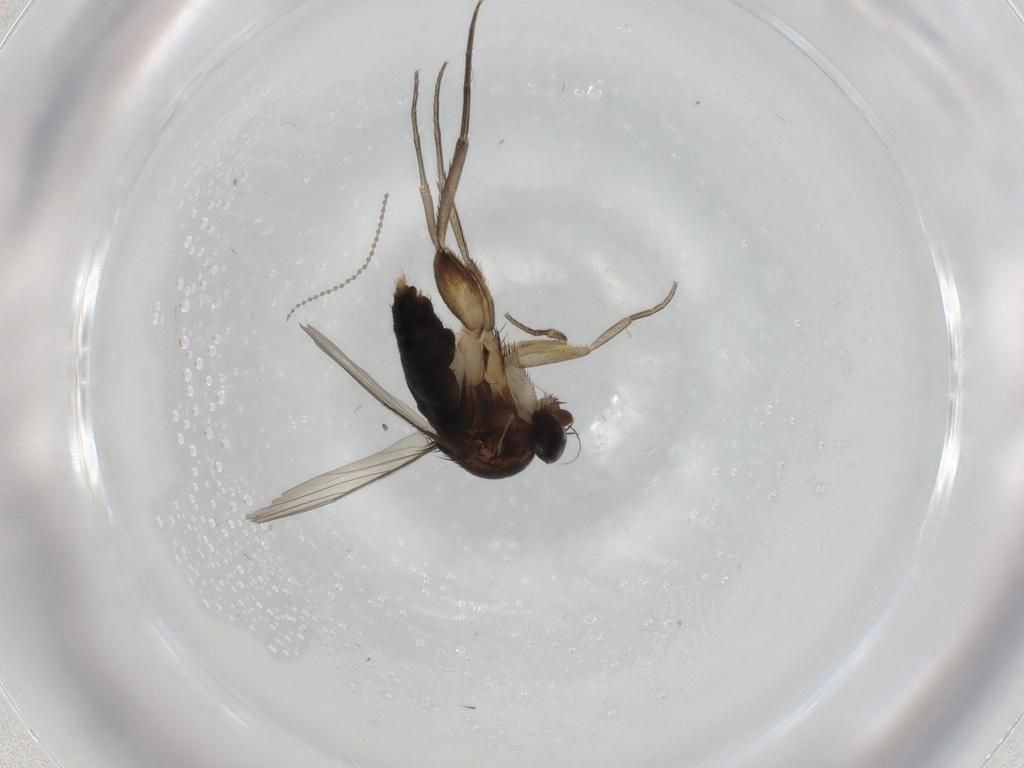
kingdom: Animalia
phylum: Arthropoda
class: Insecta
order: Diptera
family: Phoridae
